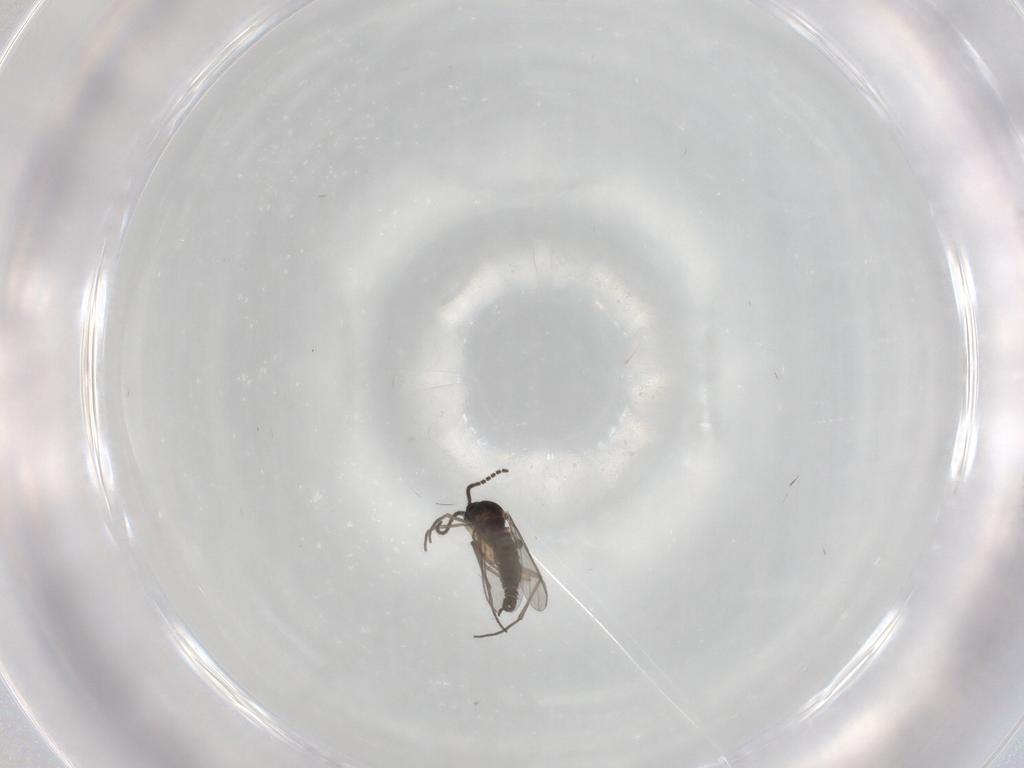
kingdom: Animalia
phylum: Arthropoda
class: Insecta
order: Diptera
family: Sciaridae
